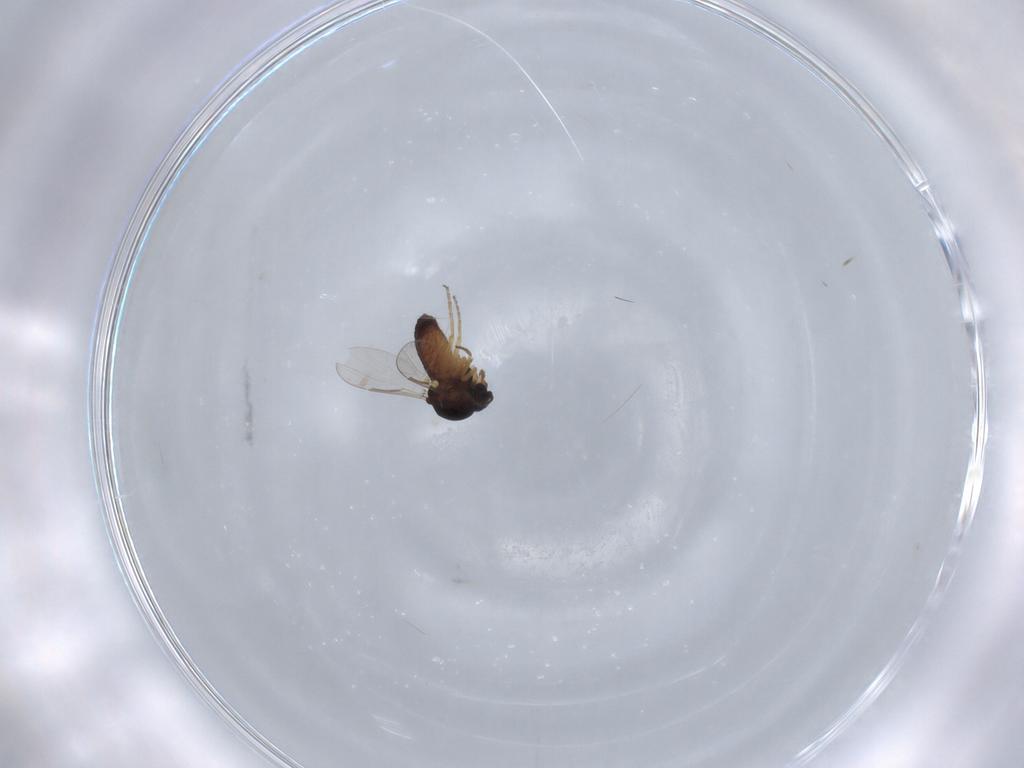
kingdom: Animalia
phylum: Arthropoda
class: Insecta
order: Diptera
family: Ceratopogonidae
